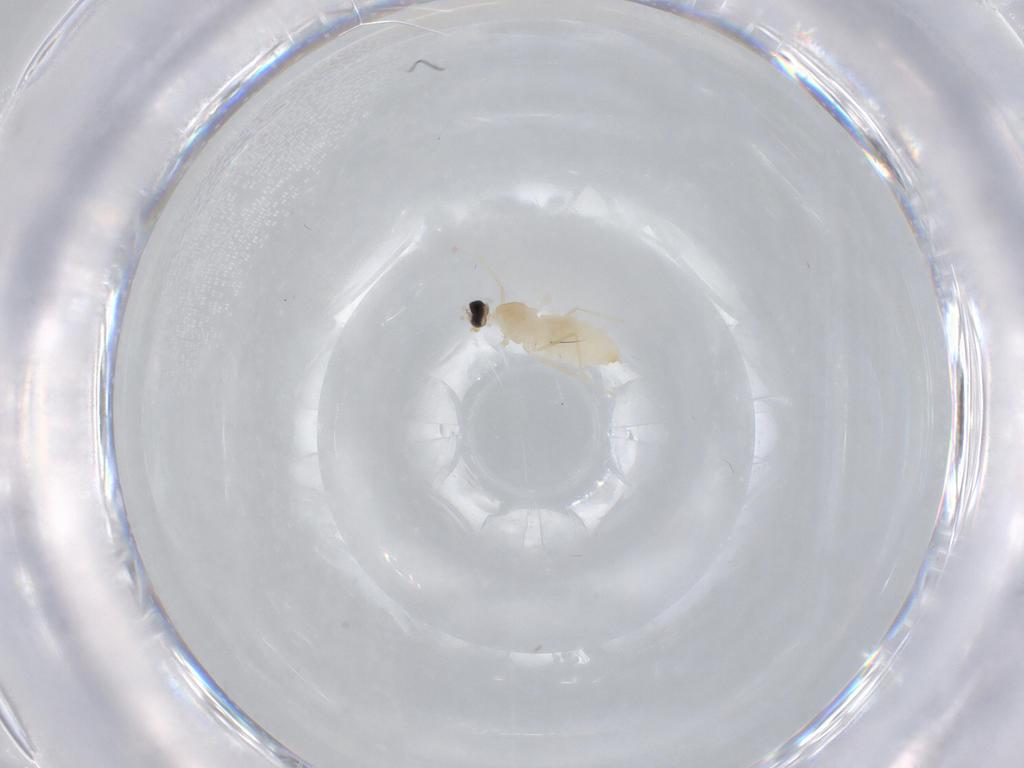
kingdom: Animalia
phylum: Arthropoda
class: Insecta
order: Diptera
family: Cecidomyiidae
